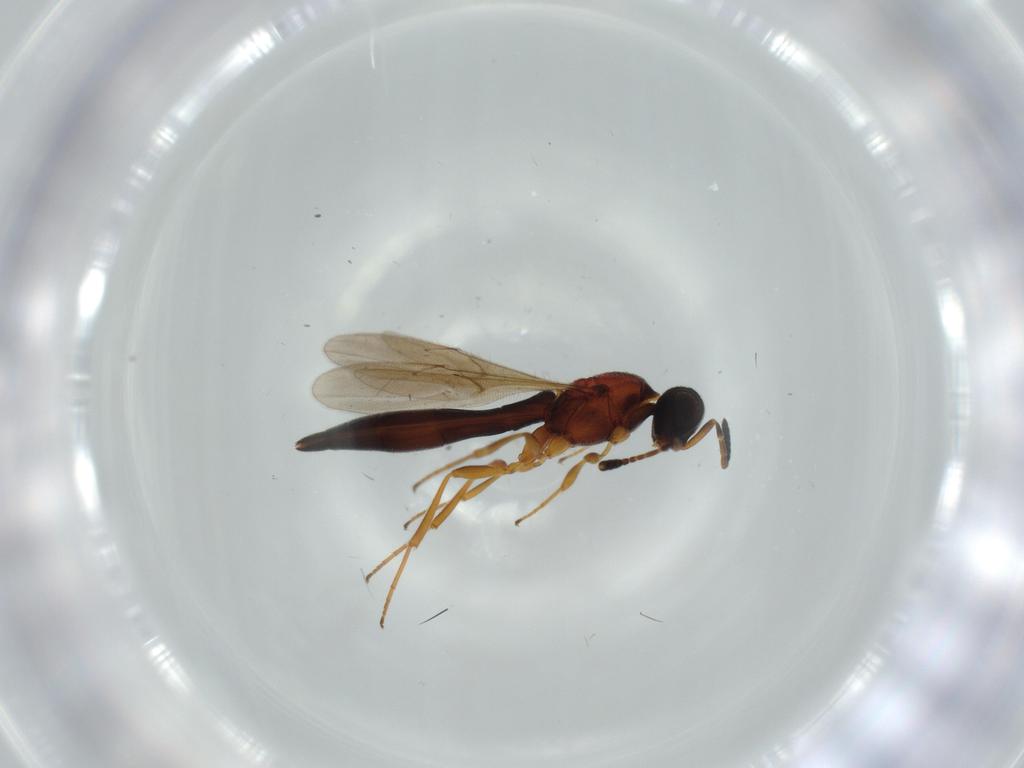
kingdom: Animalia
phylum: Arthropoda
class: Insecta
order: Hymenoptera
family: Scelionidae
